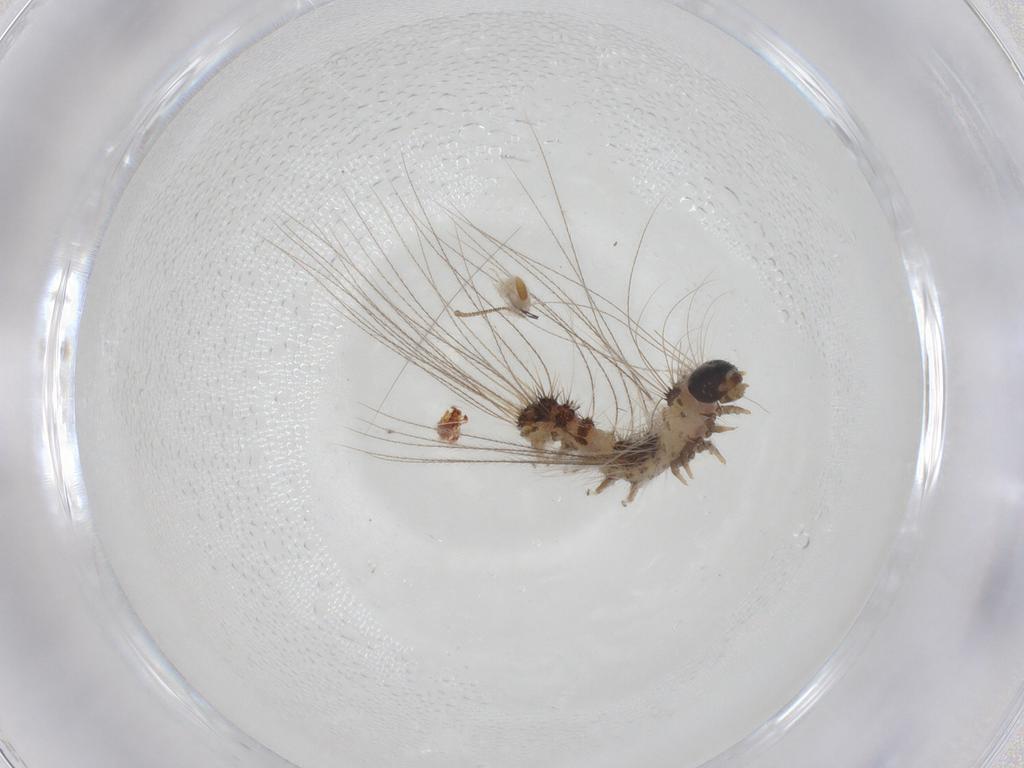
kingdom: Animalia
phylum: Arthropoda
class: Insecta
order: Lepidoptera
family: Erebidae
